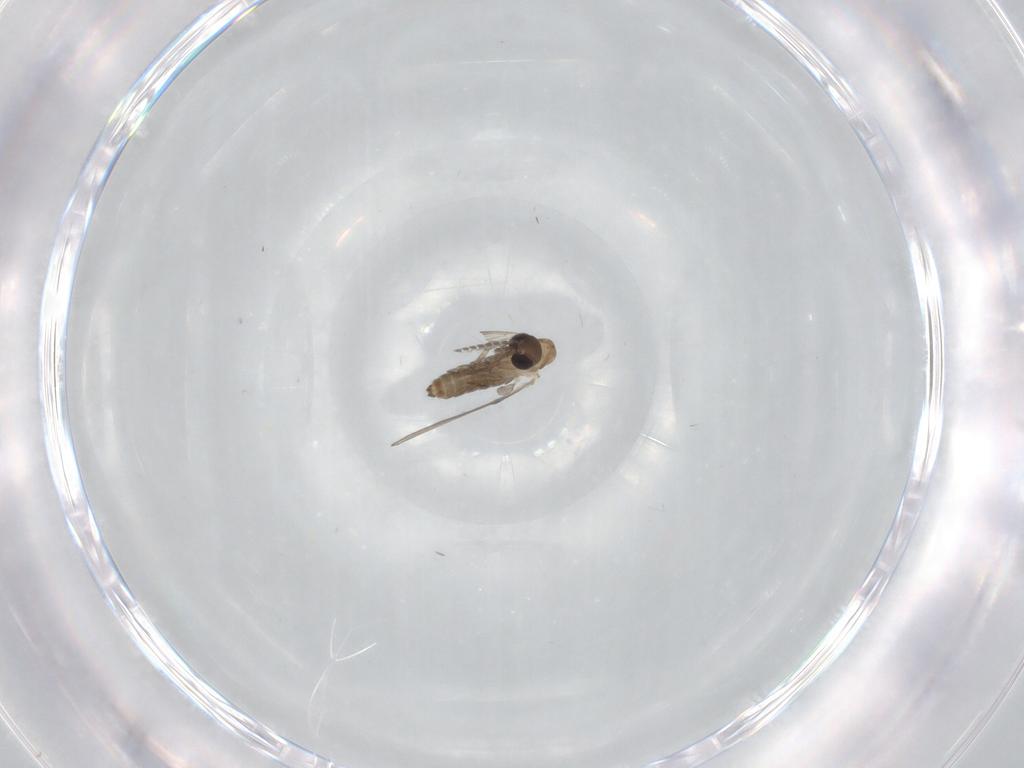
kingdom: Animalia
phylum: Arthropoda
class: Insecta
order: Diptera
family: Psychodidae
